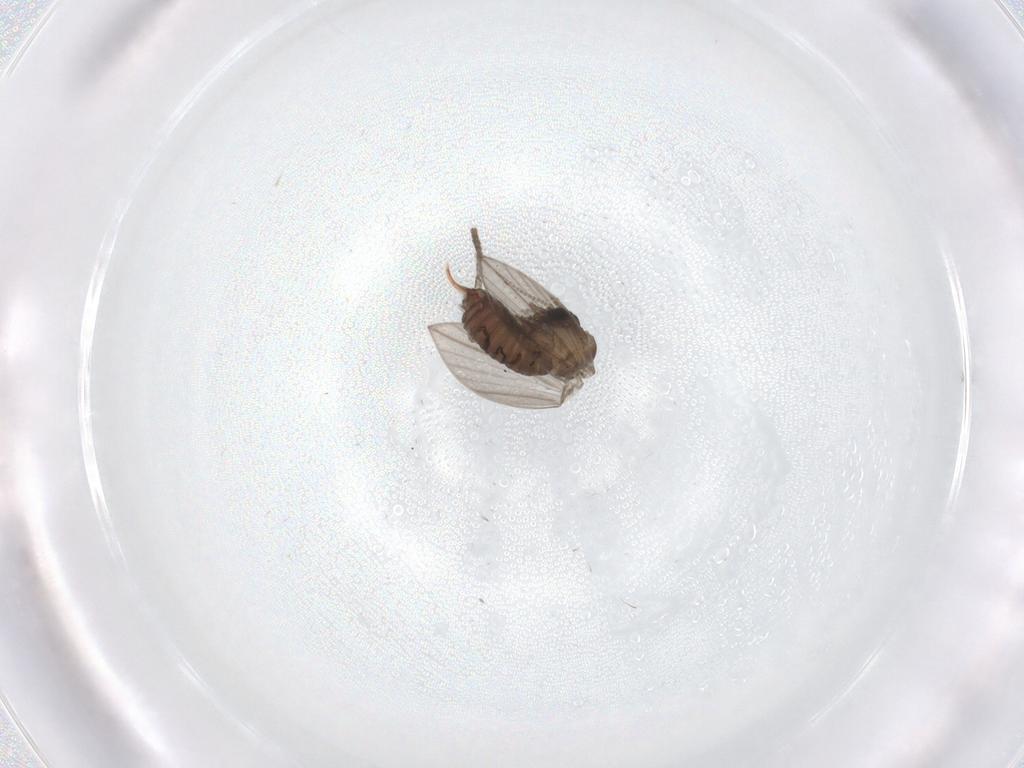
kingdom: Animalia
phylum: Arthropoda
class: Insecta
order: Diptera
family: Psychodidae
